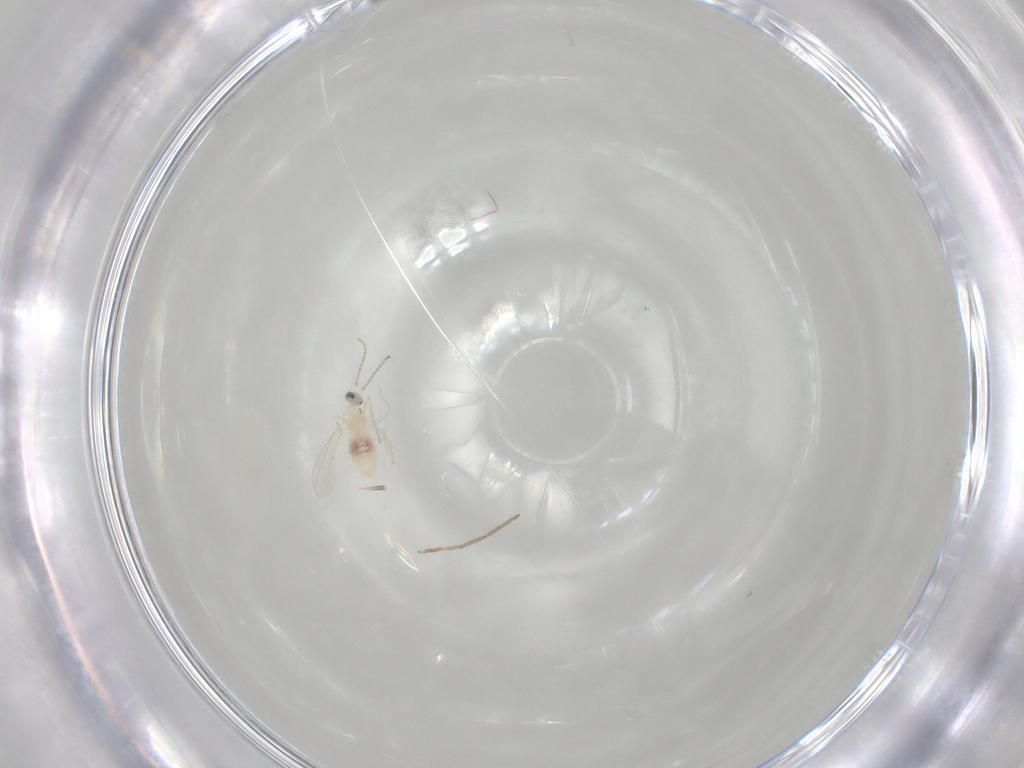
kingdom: Animalia
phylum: Arthropoda
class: Insecta
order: Diptera
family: Cecidomyiidae
